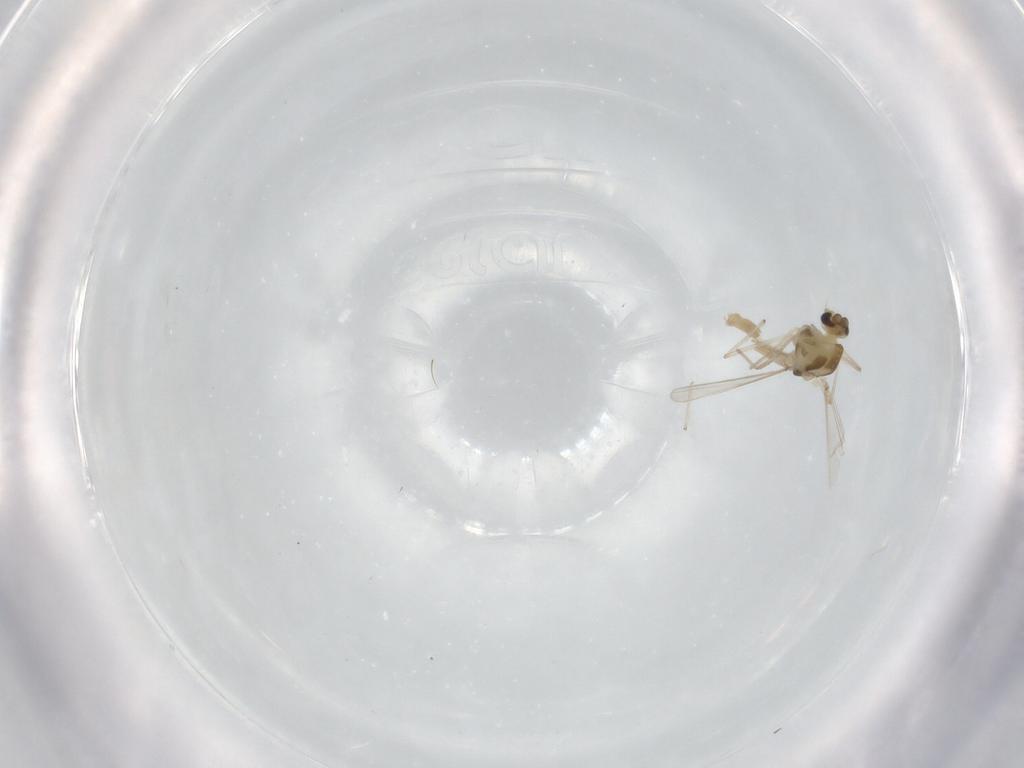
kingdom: Animalia
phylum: Arthropoda
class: Insecta
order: Diptera
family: Chironomidae
